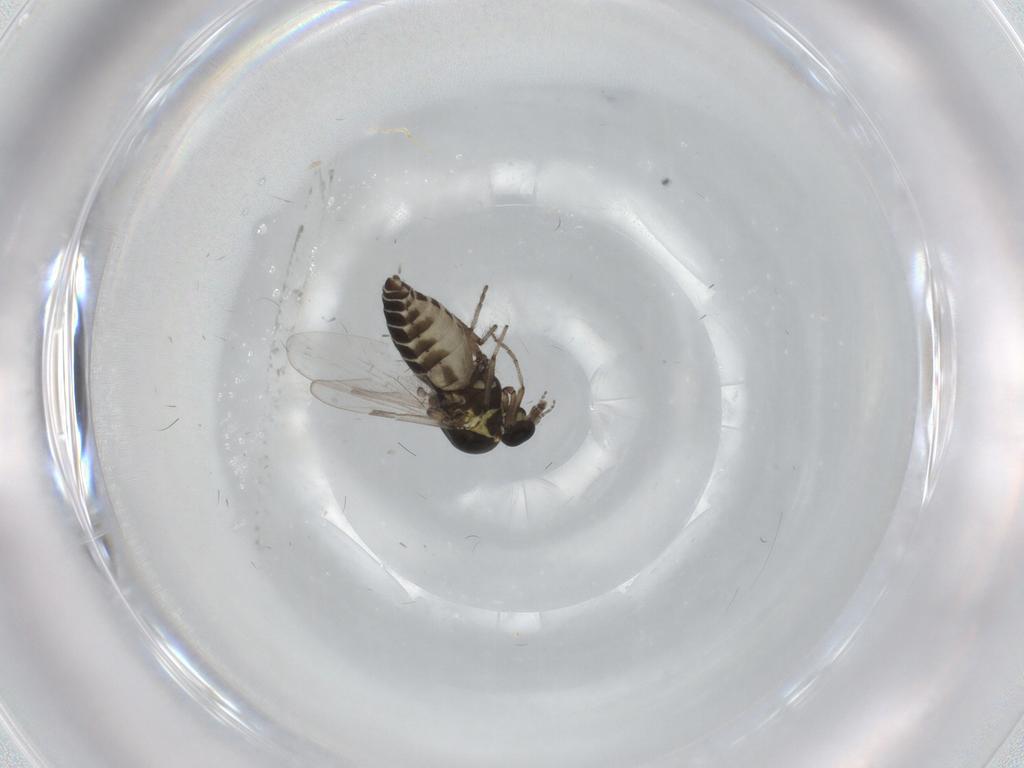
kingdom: Animalia
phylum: Arthropoda
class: Insecta
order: Diptera
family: Ceratopogonidae
